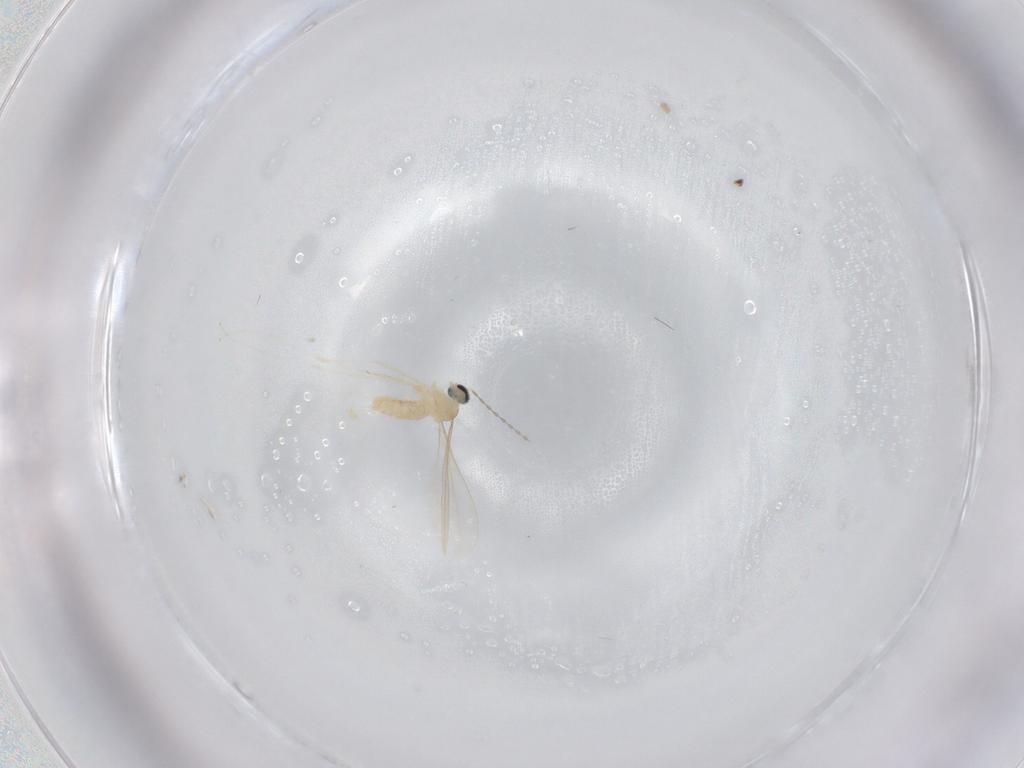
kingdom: Animalia
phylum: Arthropoda
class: Insecta
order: Diptera
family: Cecidomyiidae
